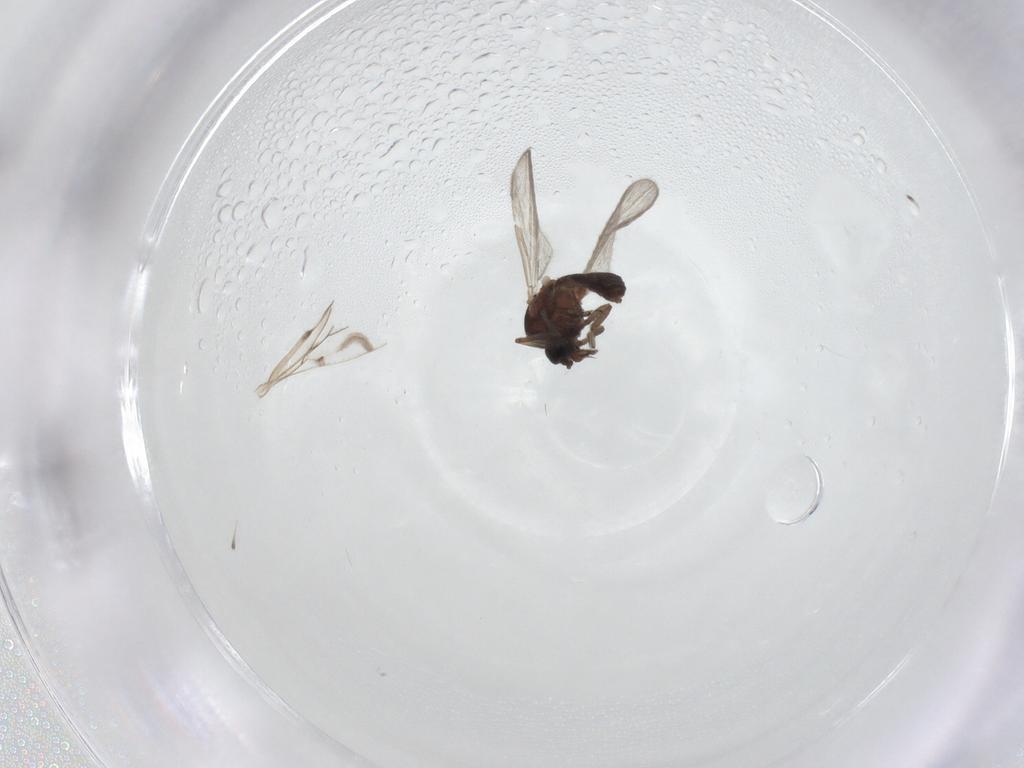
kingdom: Animalia
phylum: Arthropoda
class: Insecta
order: Diptera
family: Ceratopogonidae
